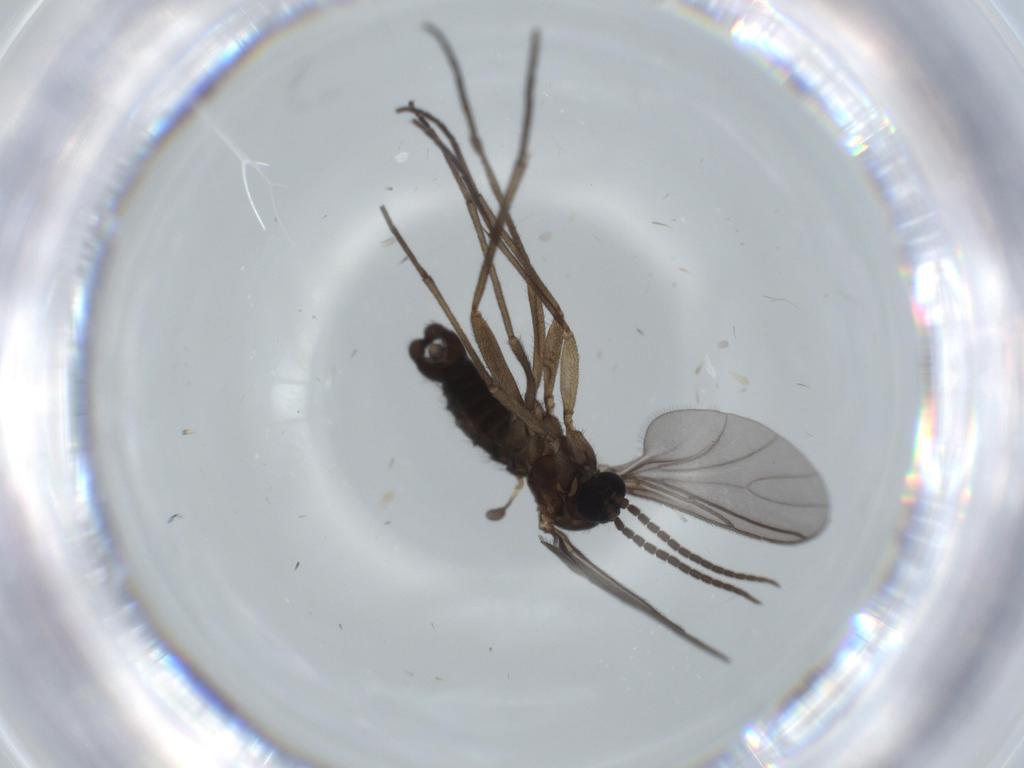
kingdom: Animalia
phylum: Arthropoda
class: Insecta
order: Diptera
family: Sciaridae
